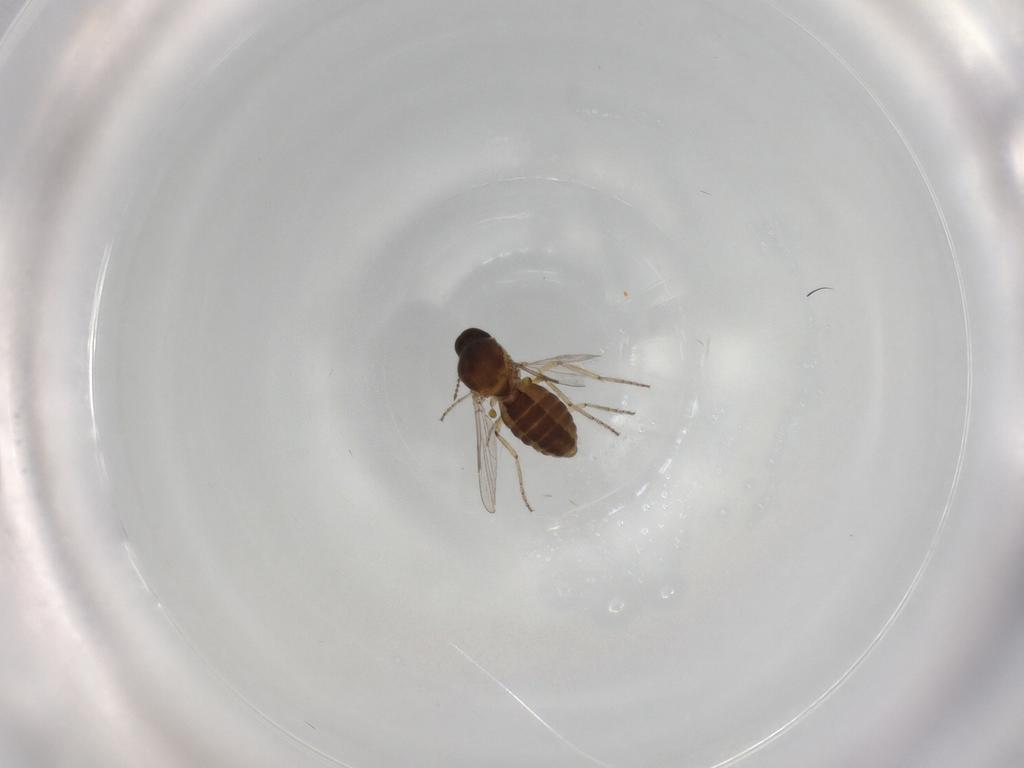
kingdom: Animalia
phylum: Arthropoda
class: Insecta
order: Diptera
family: Ceratopogonidae
